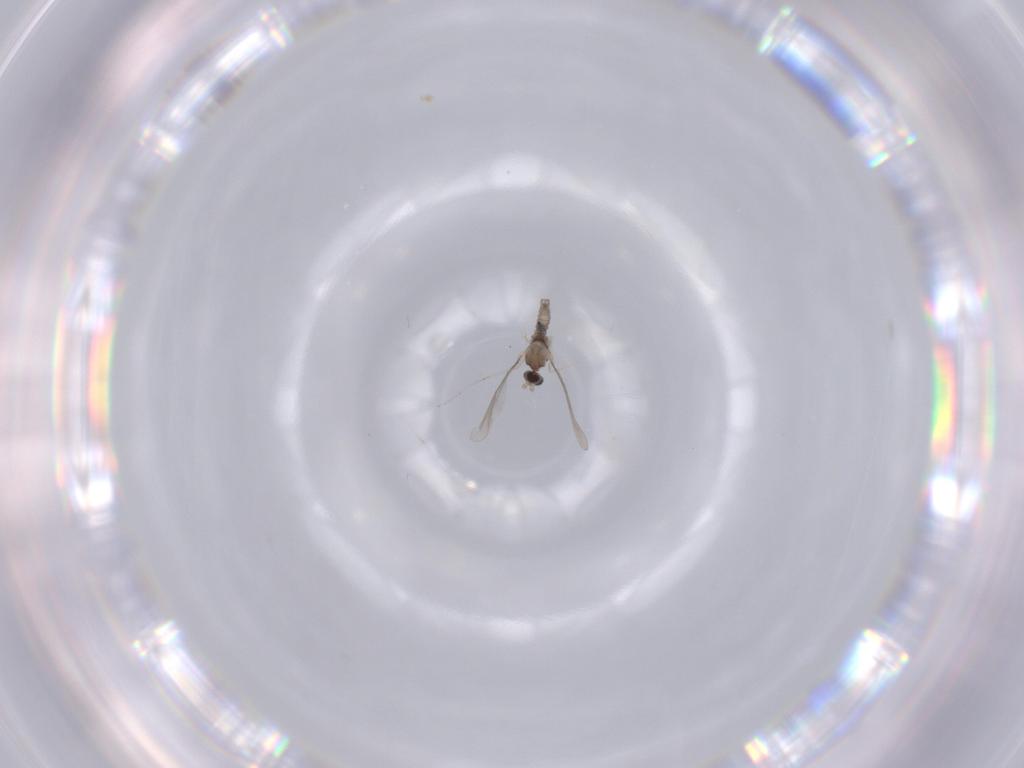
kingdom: Animalia
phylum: Arthropoda
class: Insecta
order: Diptera
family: Cecidomyiidae
